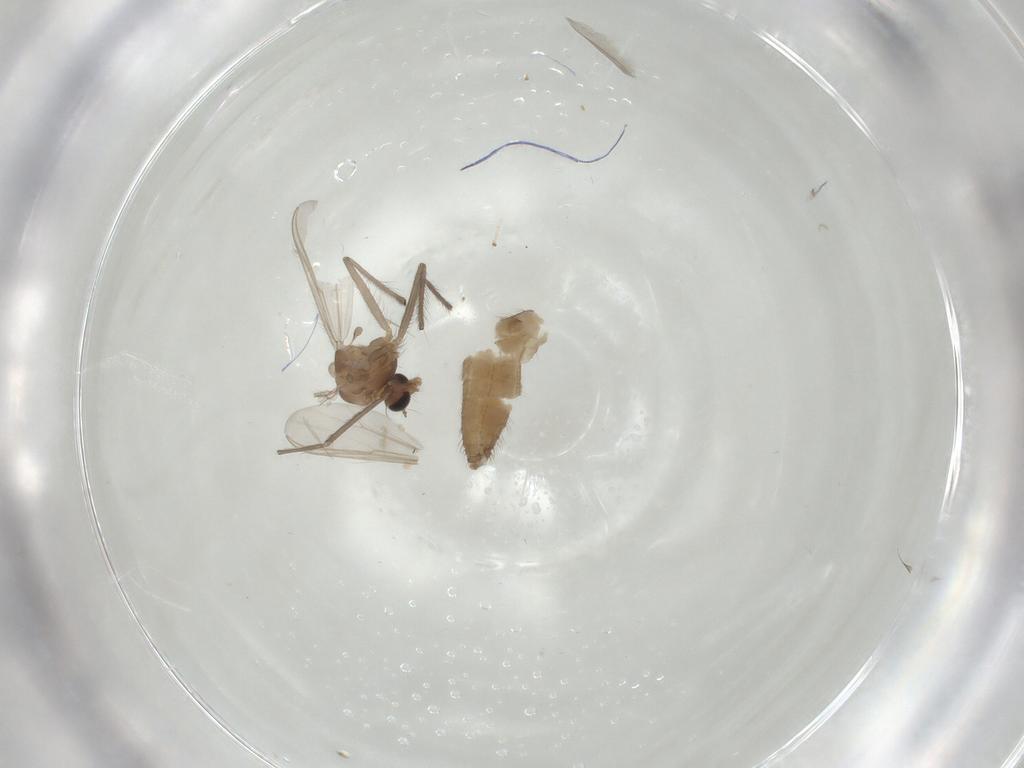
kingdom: Animalia
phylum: Arthropoda
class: Insecta
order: Diptera
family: Chironomidae
